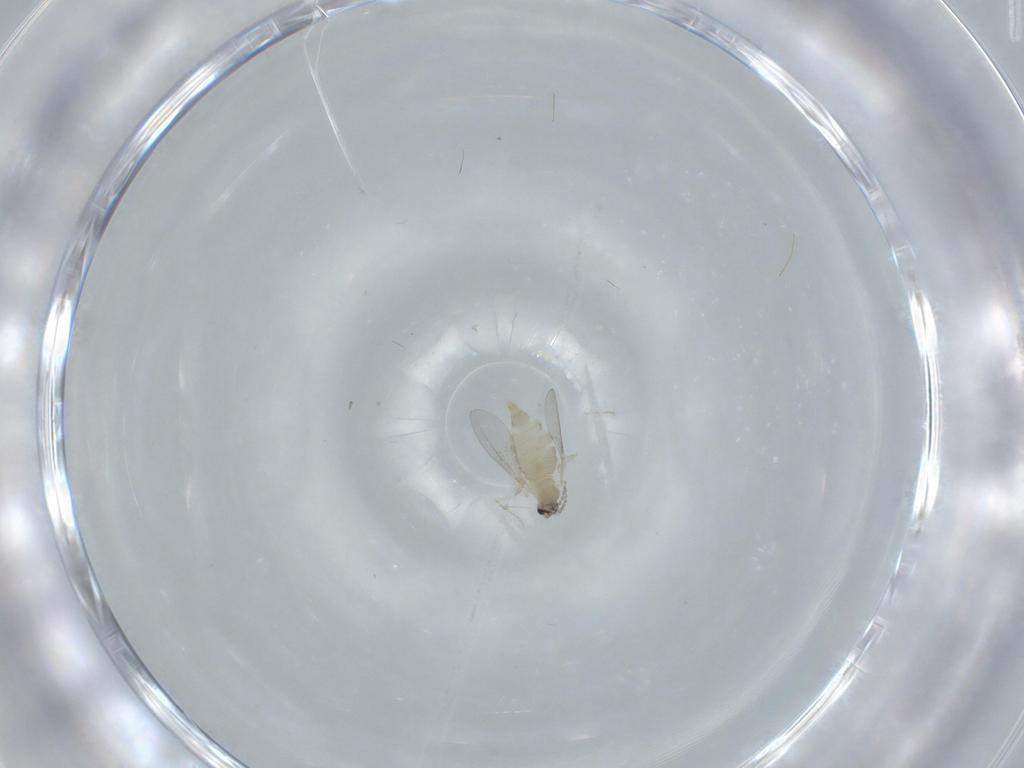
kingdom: Animalia
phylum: Arthropoda
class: Insecta
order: Diptera
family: Cecidomyiidae
